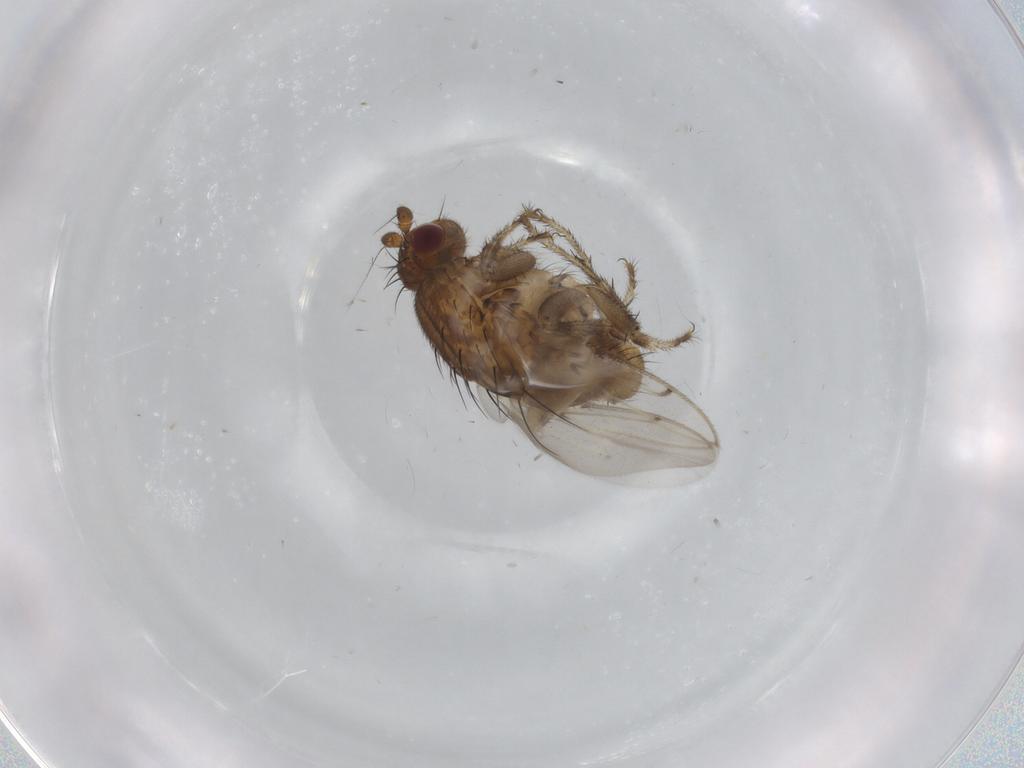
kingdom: Animalia
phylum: Arthropoda
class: Insecta
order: Diptera
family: Sphaeroceridae
